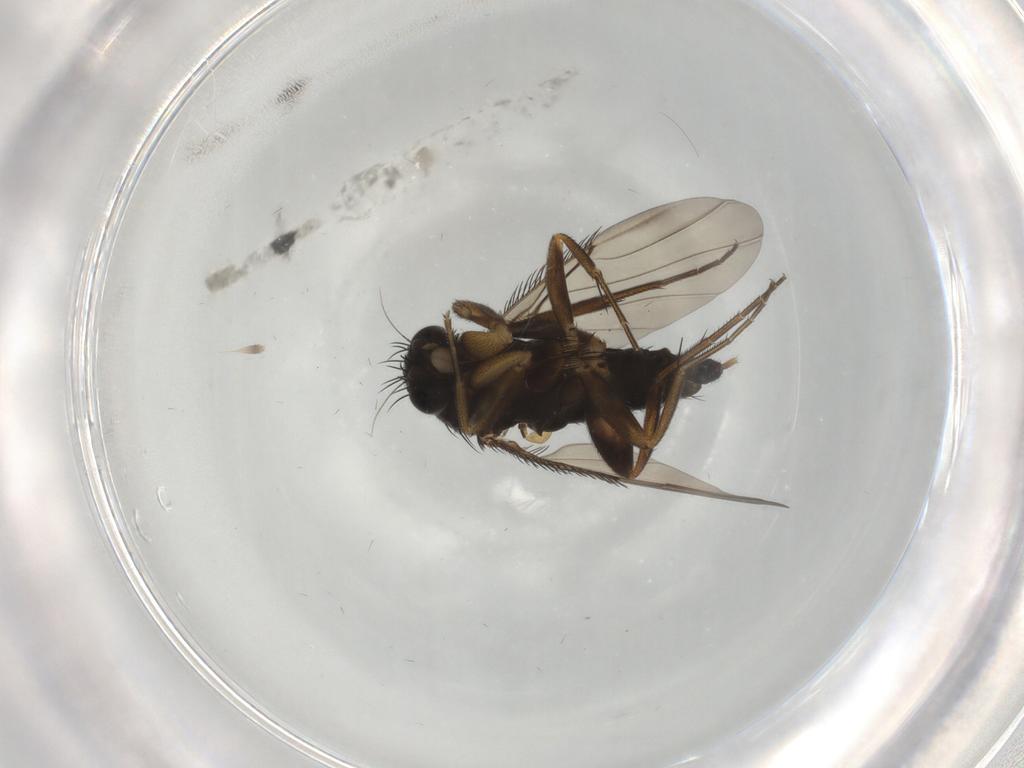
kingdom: Animalia
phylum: Arthropoda
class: Insecta
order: Diptera
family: Phoridae
